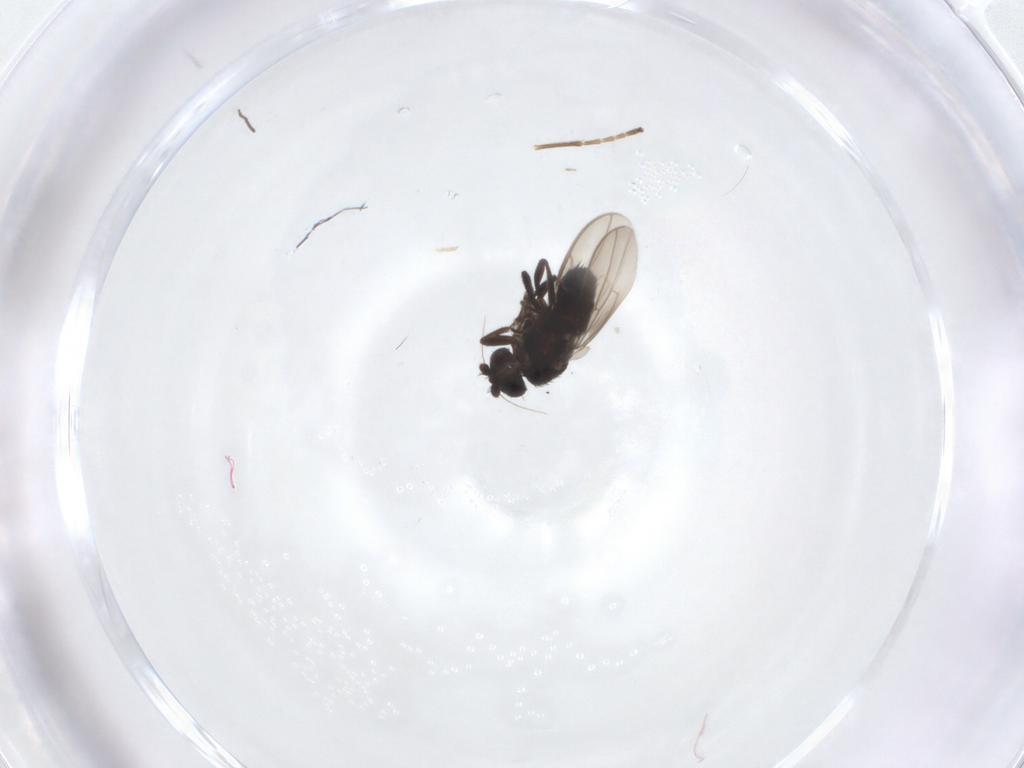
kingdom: Animalia
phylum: Arthropoda
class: Insecta
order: Diptera
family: Sphaeroceridae
